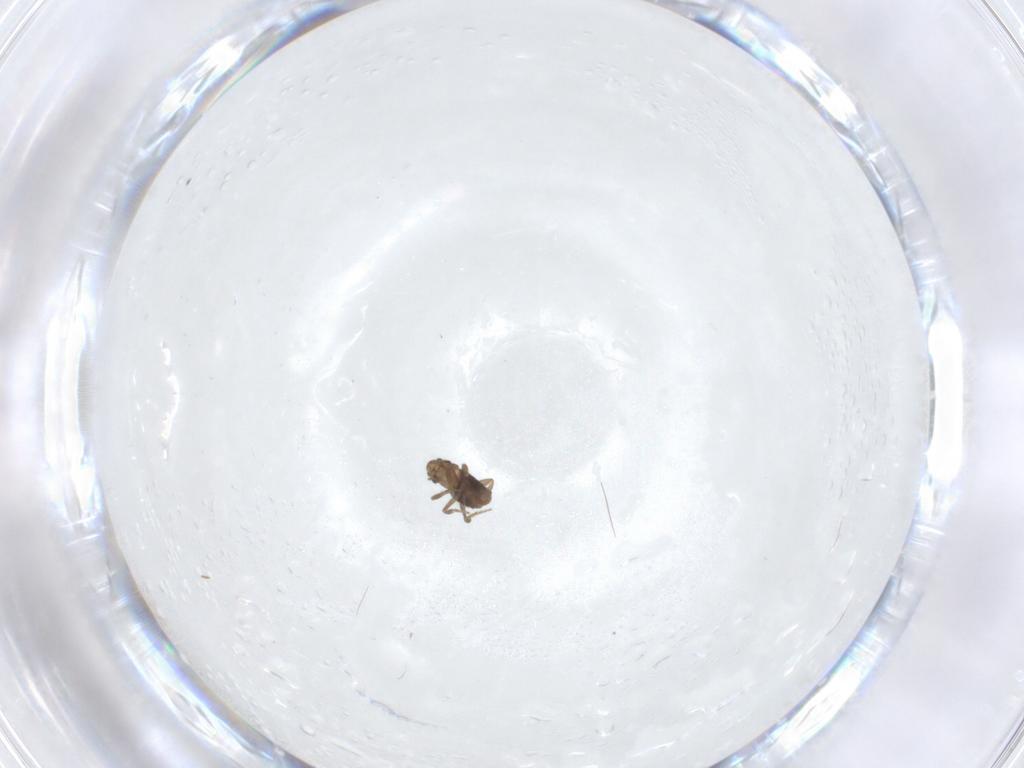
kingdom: Animalia
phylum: Arthropoda
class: Insecta
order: Diptera
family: Phoridae
